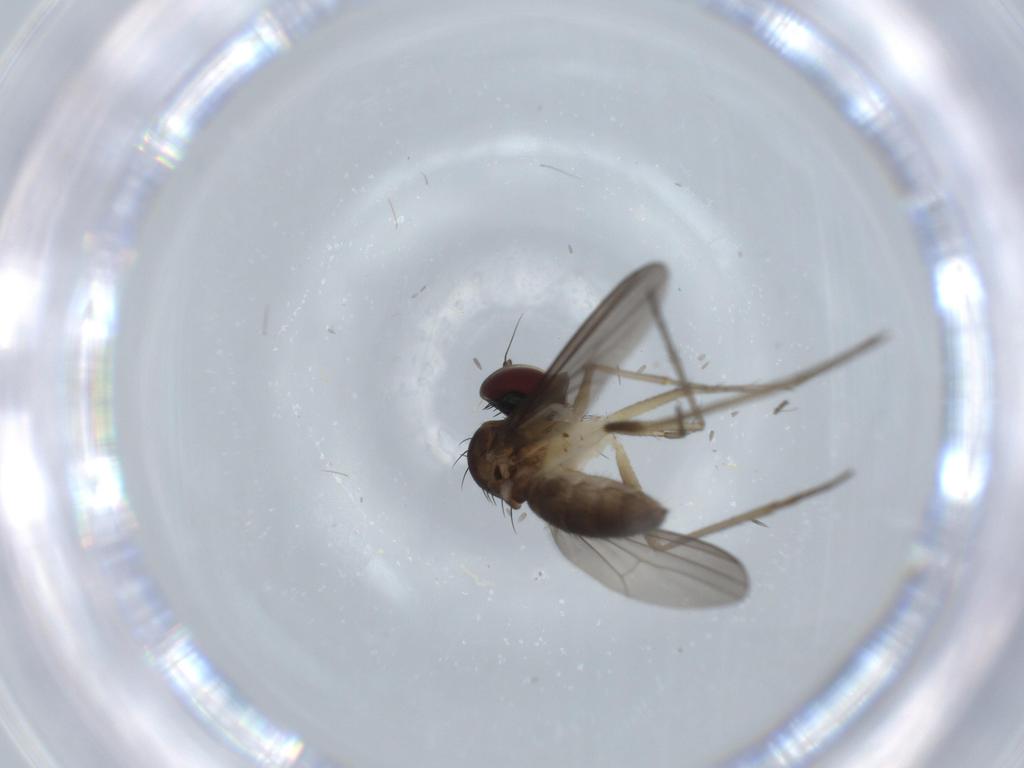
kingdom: Animalia
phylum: Arthropoda
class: Insecta
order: Diptera
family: Dolichopodidae
